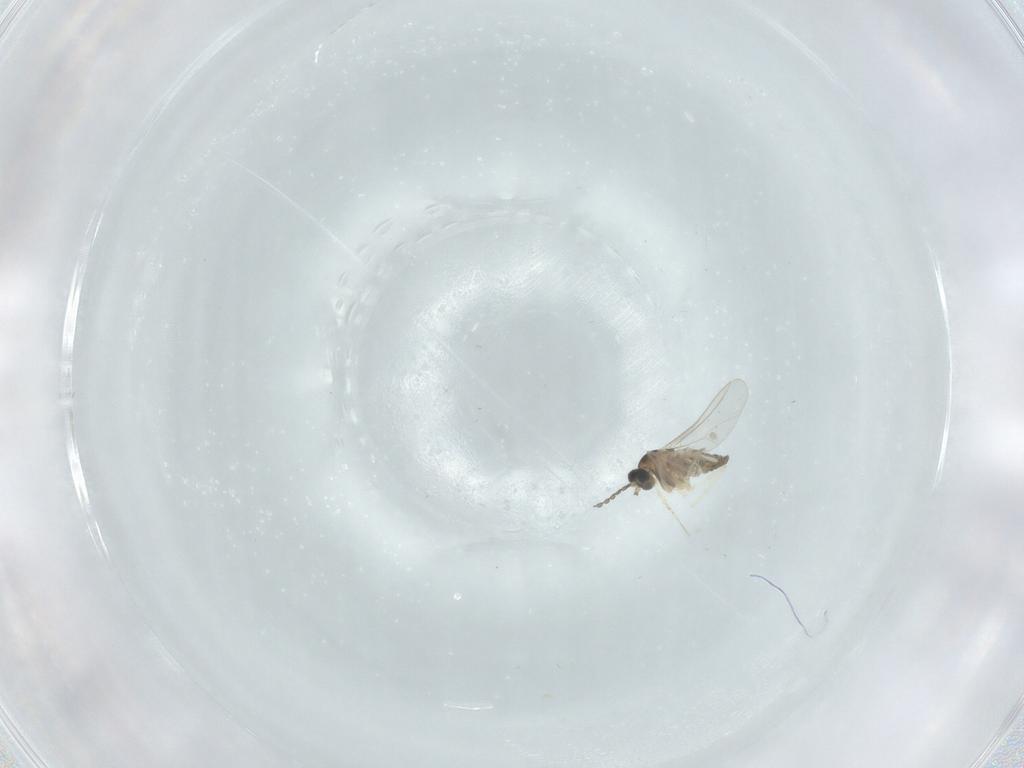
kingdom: Animalia
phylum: Arthropoda
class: Insecta
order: Diptera
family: Cecidomyiidae
